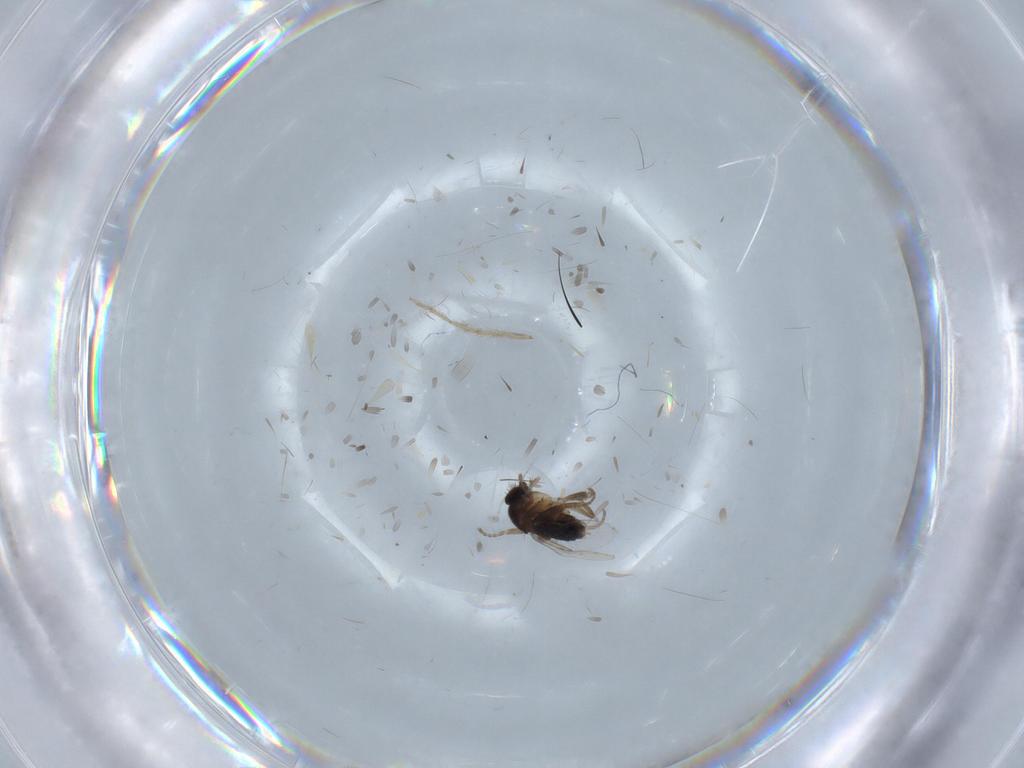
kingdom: Animalia
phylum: Arthropoda
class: Insecta
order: Diptera
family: Phoridae
